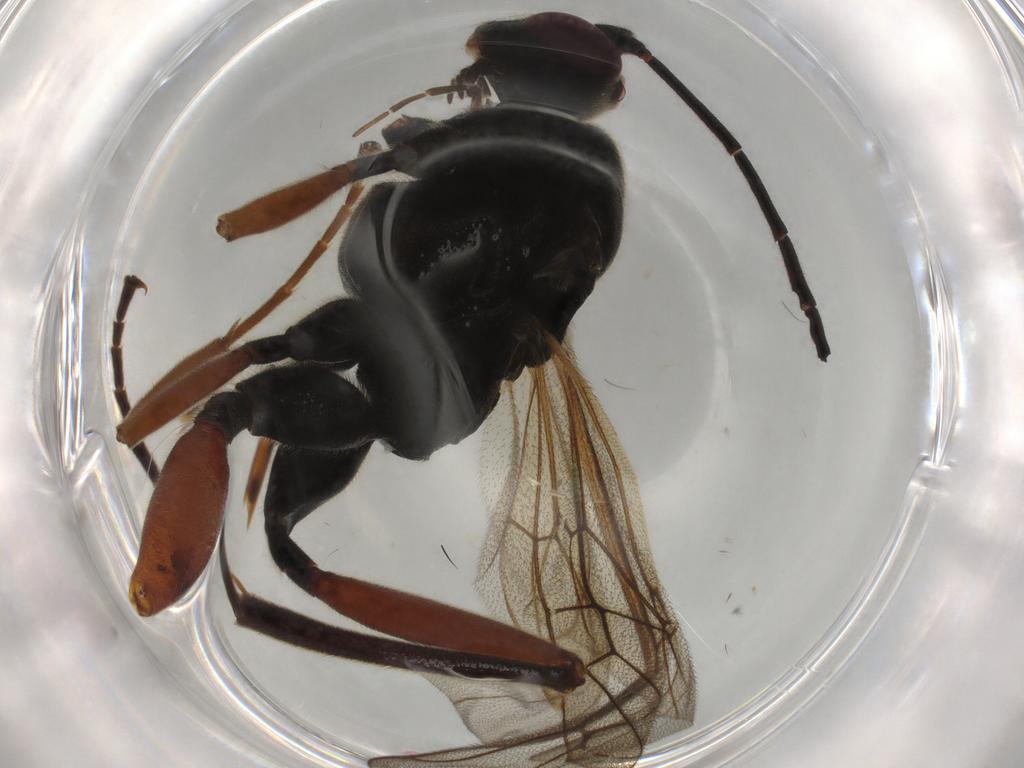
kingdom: Animalia
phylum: Arthropoda
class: Insecta
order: Hymenoptera
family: Ichneumonidae
